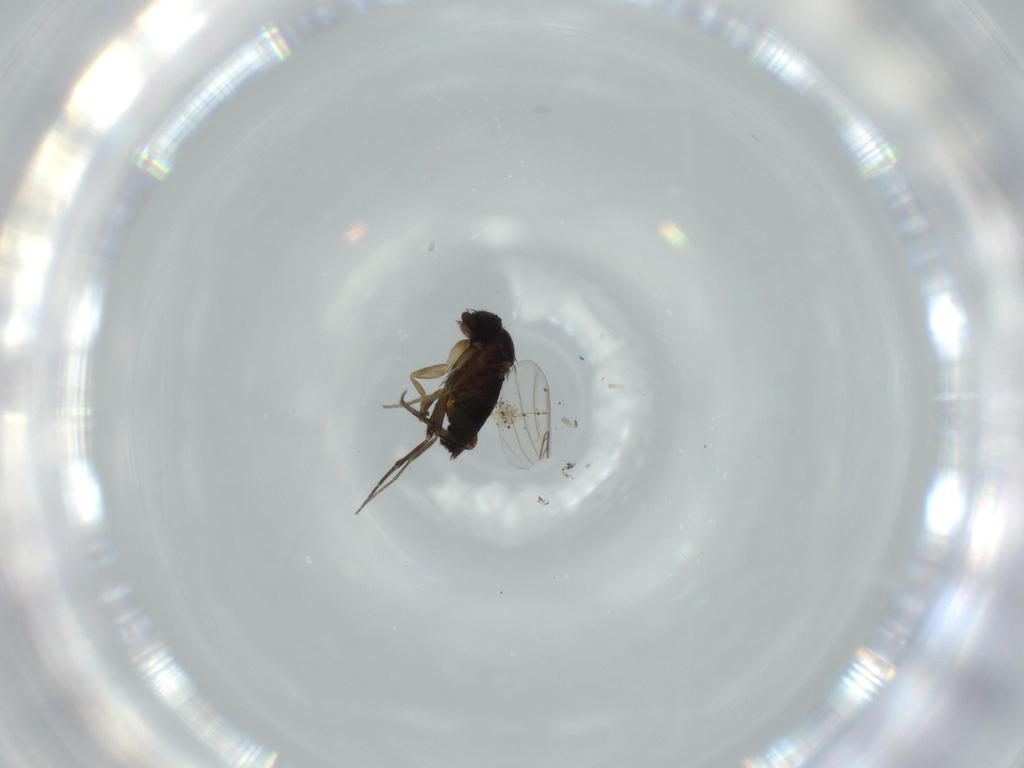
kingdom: Animalia
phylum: Arthropoda
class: Insecta
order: Diptera
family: Phoridae
